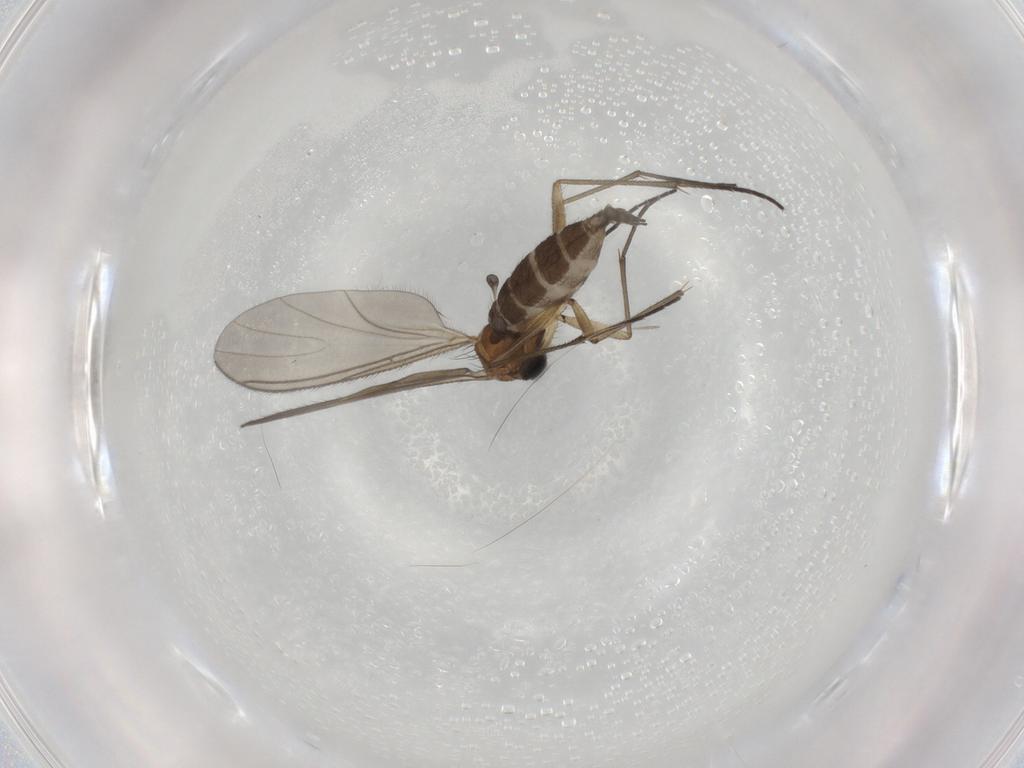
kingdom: Animalia
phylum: Arthropoda
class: Insecta
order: Diptera
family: Sciaridae
